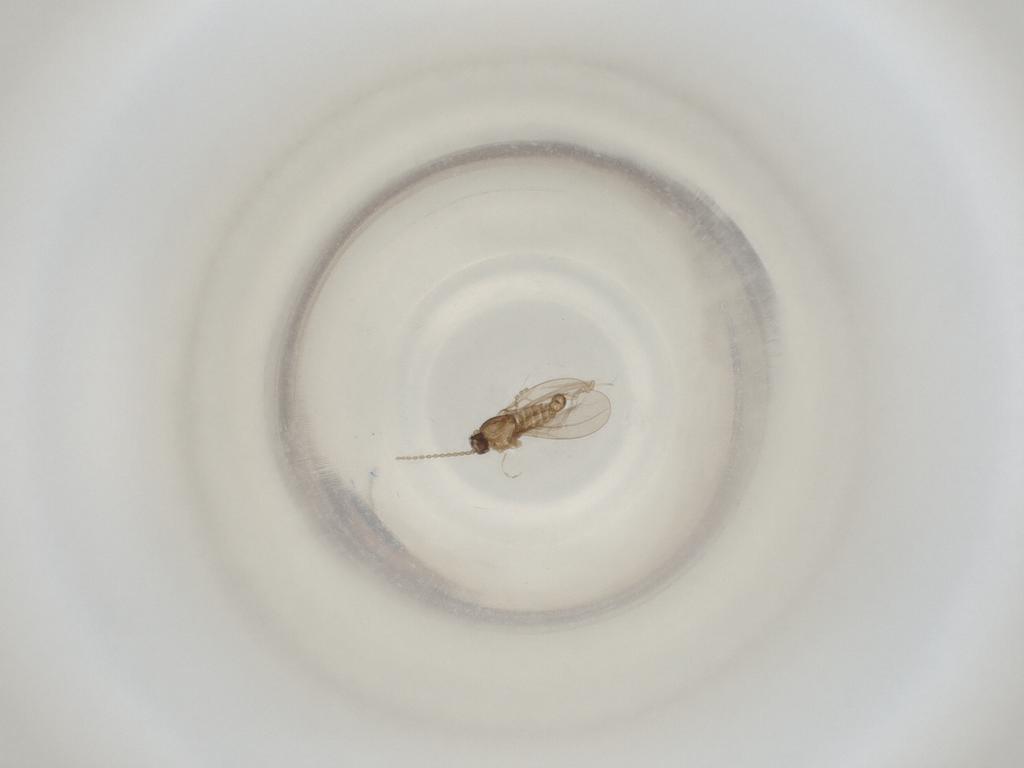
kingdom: Animalia
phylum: Arthropoda
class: Insecta
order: Diptera
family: Cecidomyiidae
